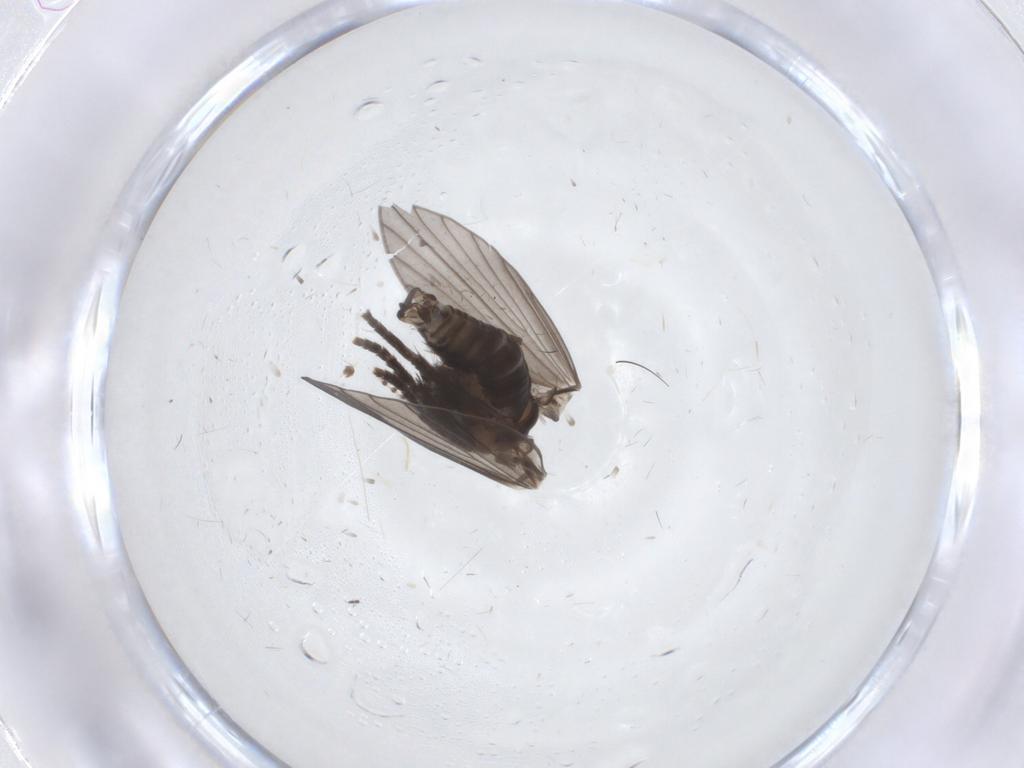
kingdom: Animalia
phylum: Arthropoda
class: Insecta
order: Diptera
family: Psychodidae
